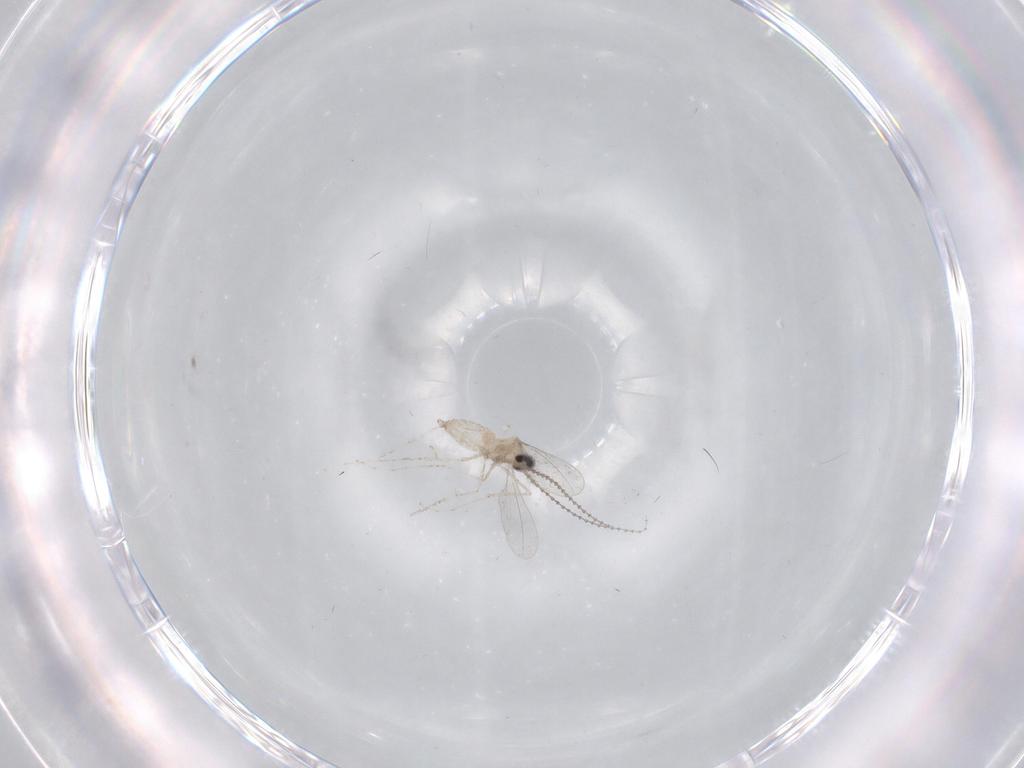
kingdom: Animalia
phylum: Arthropoda
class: Insecta
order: Diptera
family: Cecidomyiidae
